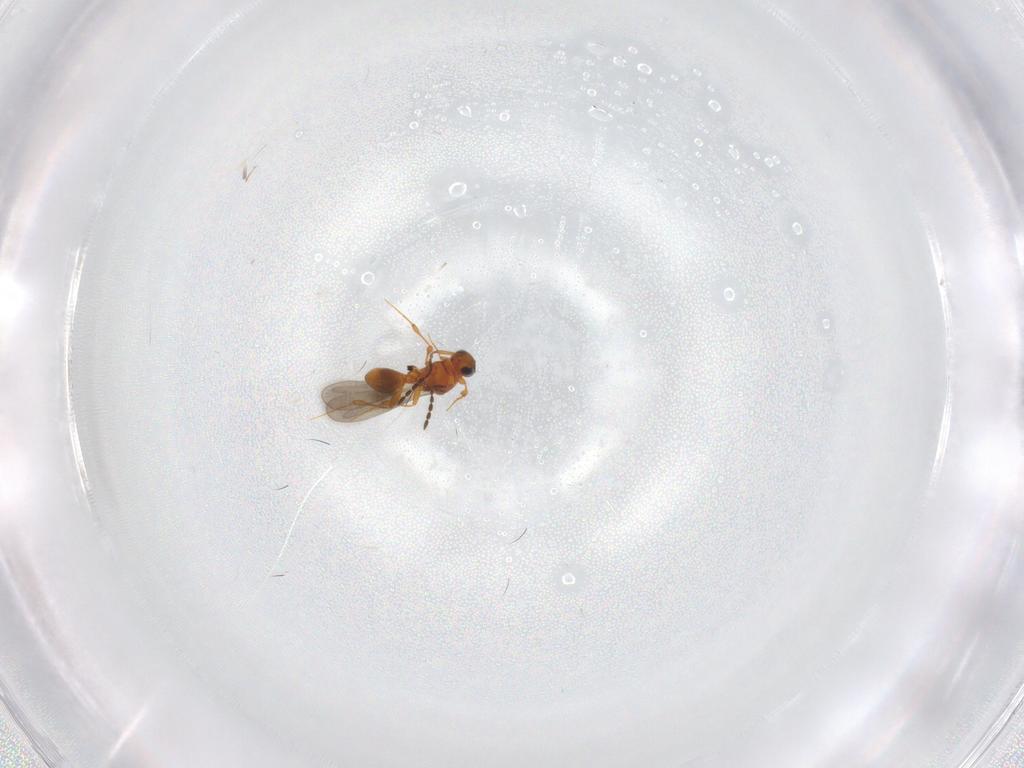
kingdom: Animalia
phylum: Arthropoda
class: Insecta
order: Hymenoptera
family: Platygastridae
